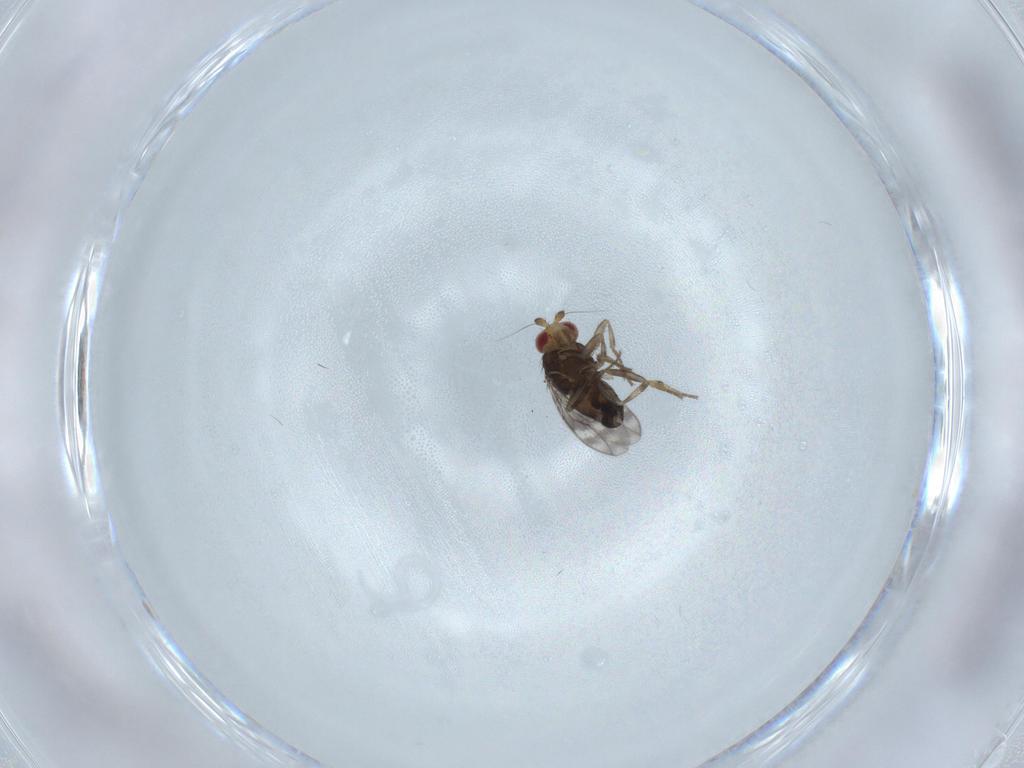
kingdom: Animalia
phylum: Arthropoda
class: Insecta
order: Diptera
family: Sphaeroceridae
